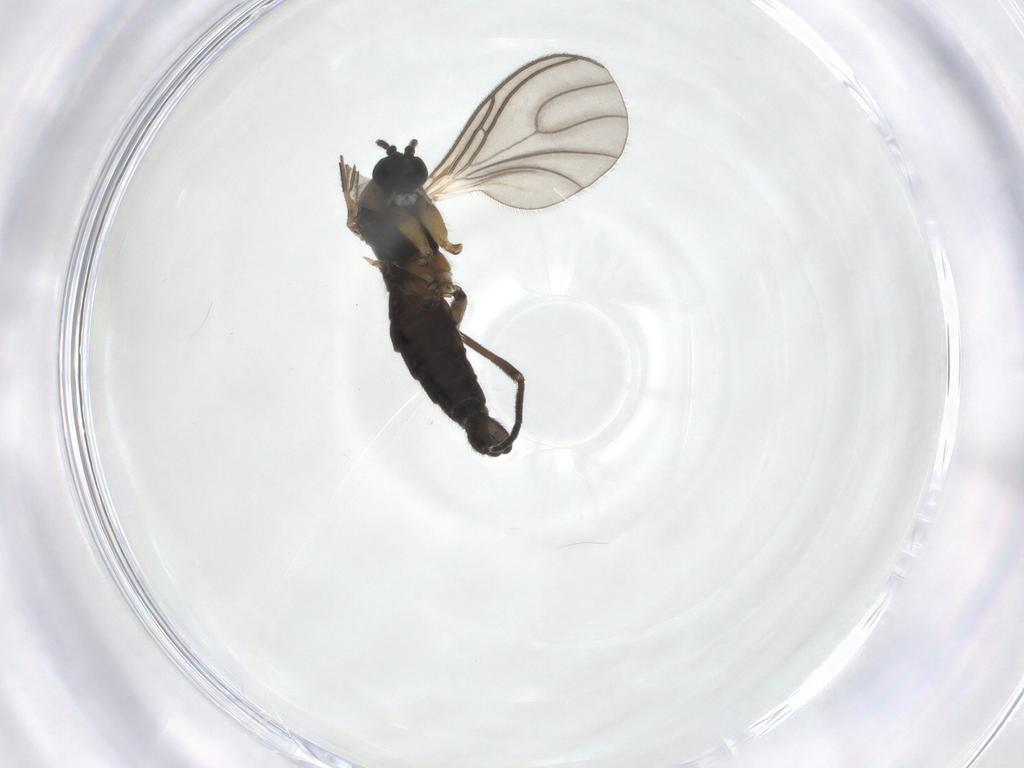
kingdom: Animalia
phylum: Arthropoda
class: Insecta
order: Diptera
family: Sciaridae
